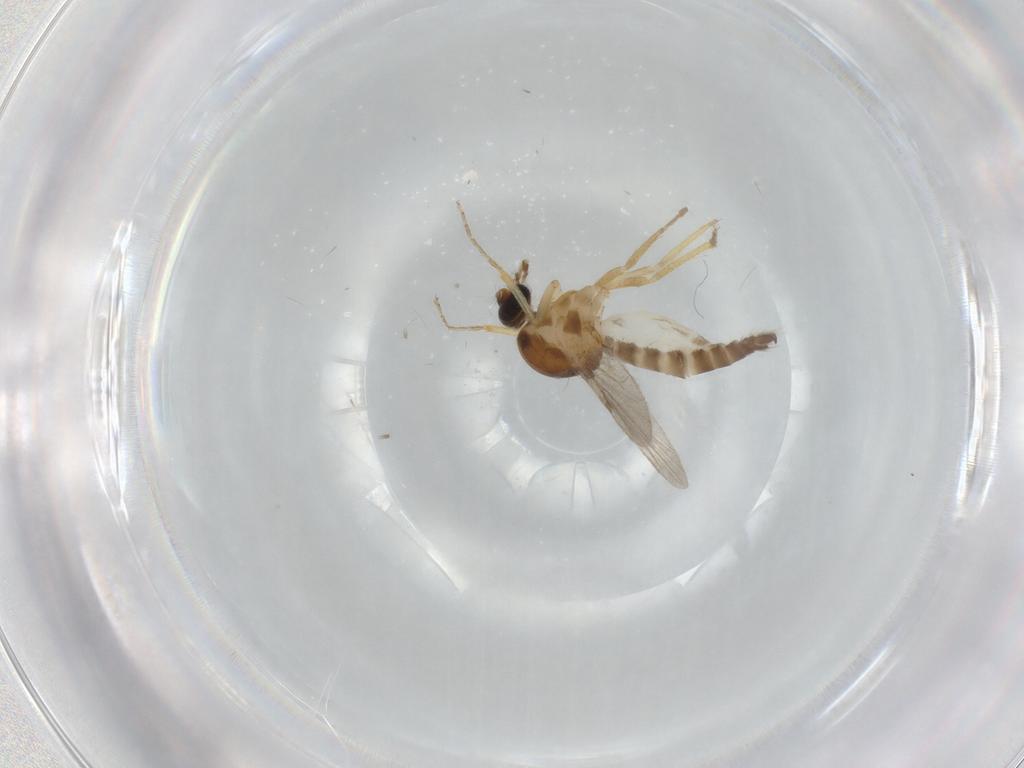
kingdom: Animalia
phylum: Arthropoda
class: Insecta
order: Diptera
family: Ceratopogonidae
